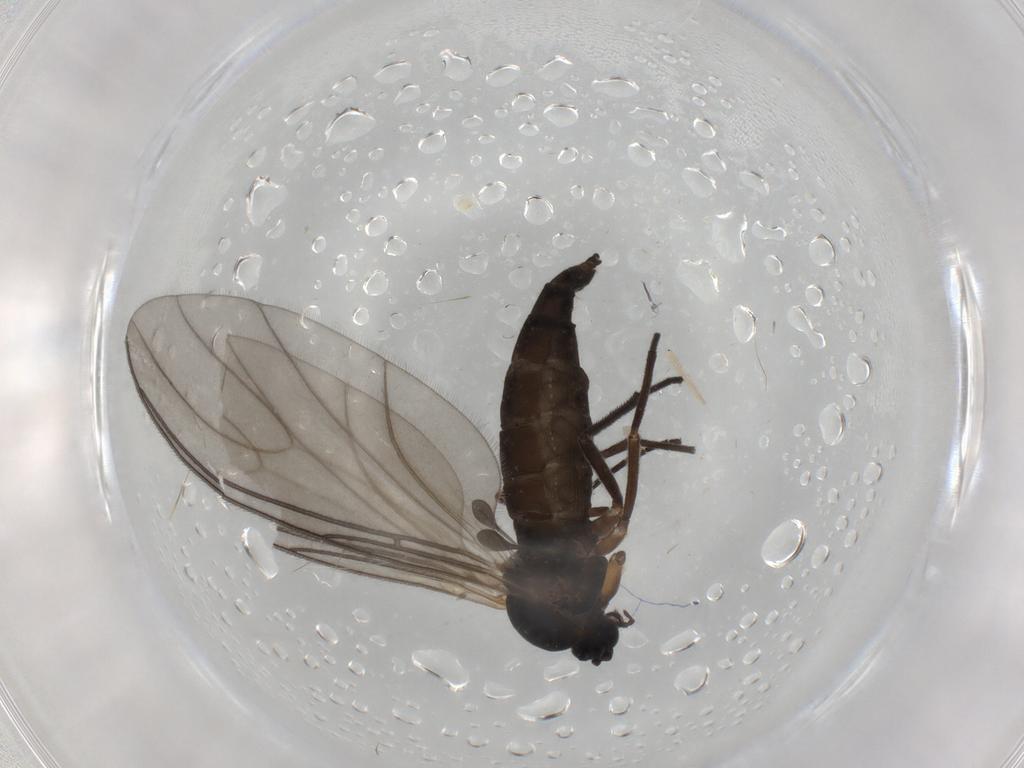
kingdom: Animalia
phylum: Arthropoda
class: Insecta
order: Diptera
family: Sciaridae
